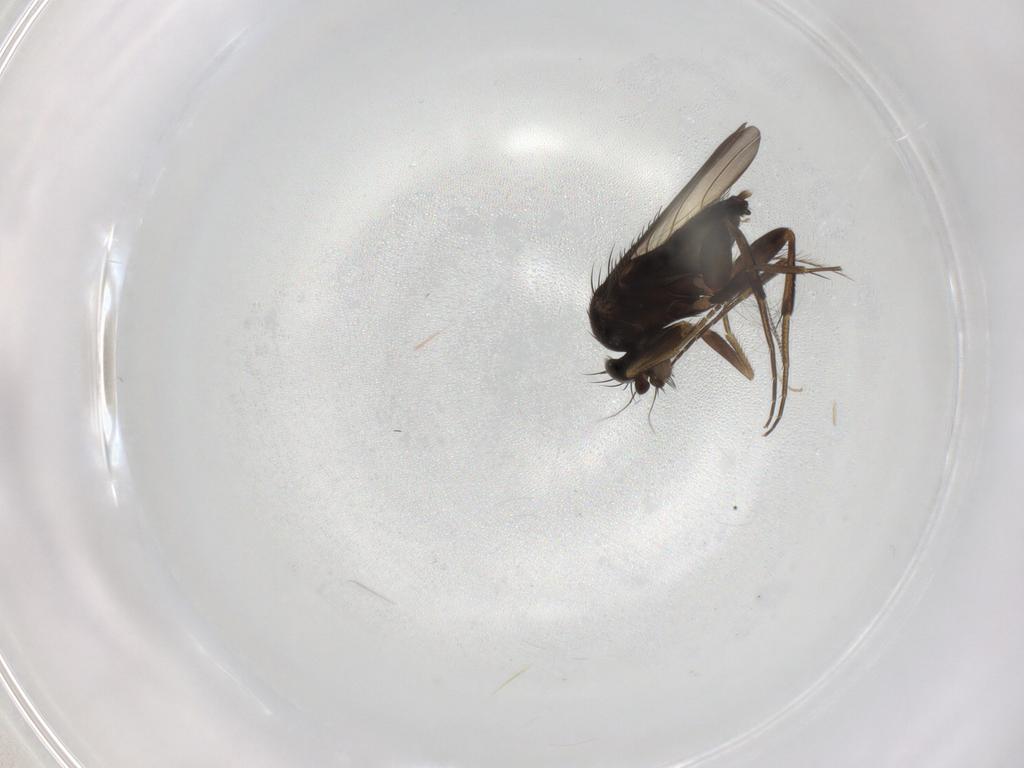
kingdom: Animalia
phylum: Arthropoda
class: Insecta
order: Diptera
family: Phoridae
